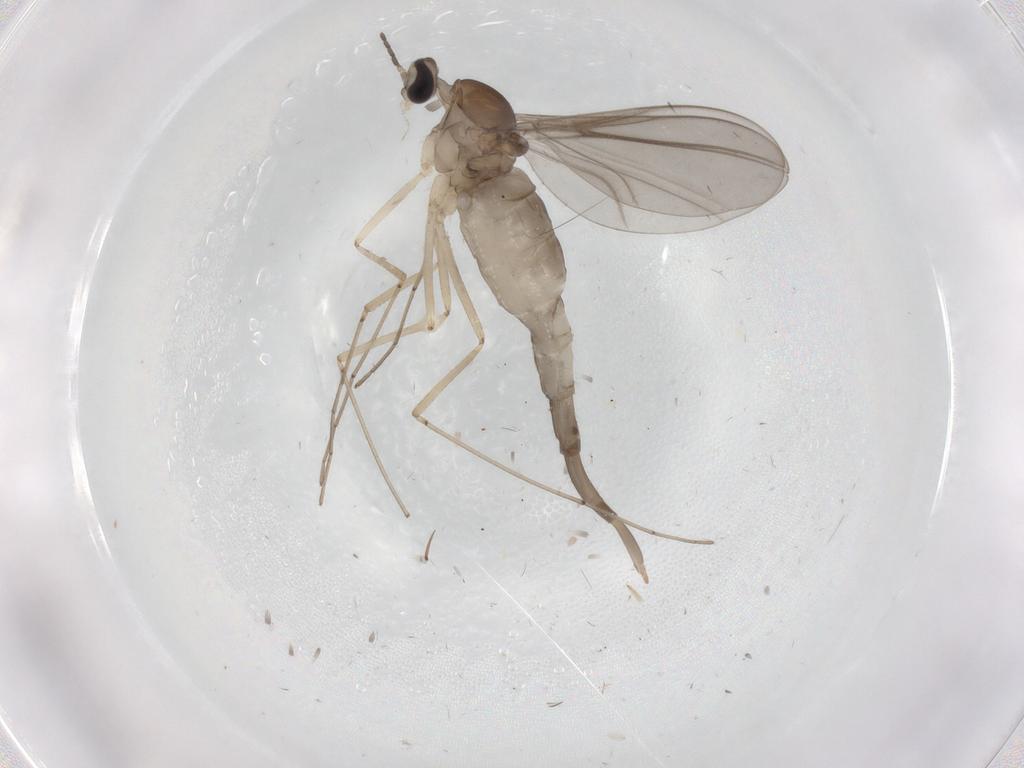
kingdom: Animalia
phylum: Arthropoda
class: Insecta
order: Diptera
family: Cecidomyiidae
